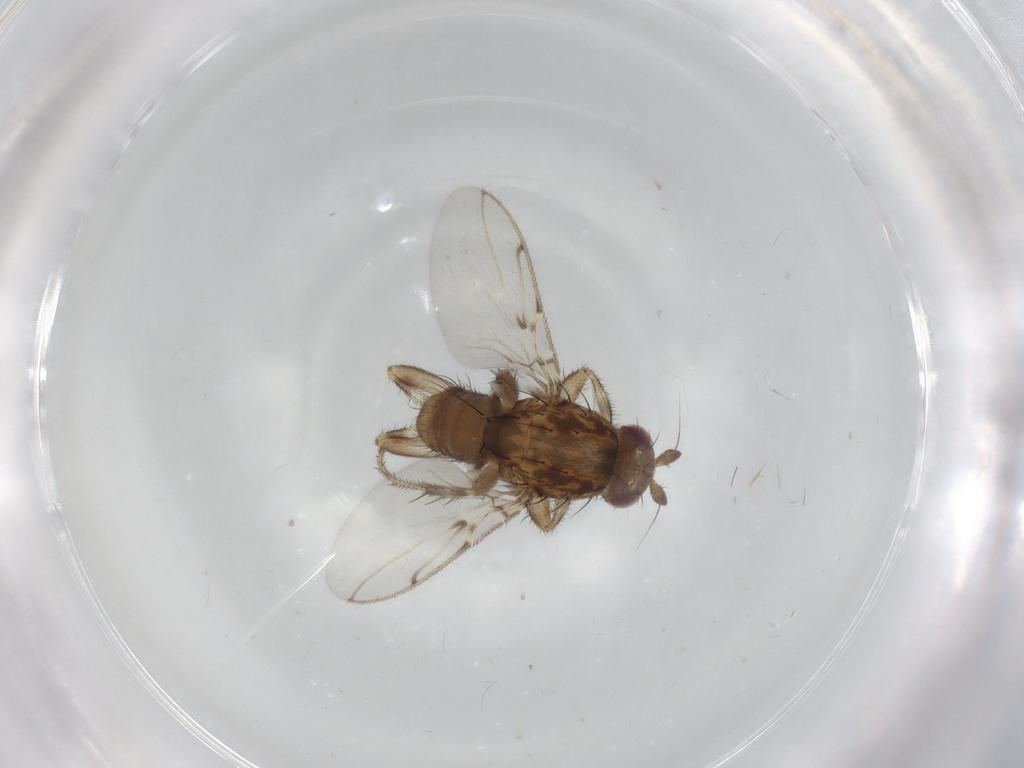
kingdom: Animalia
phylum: Arthropoda
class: Insecta
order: Diptera
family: Sphaeroceridae
